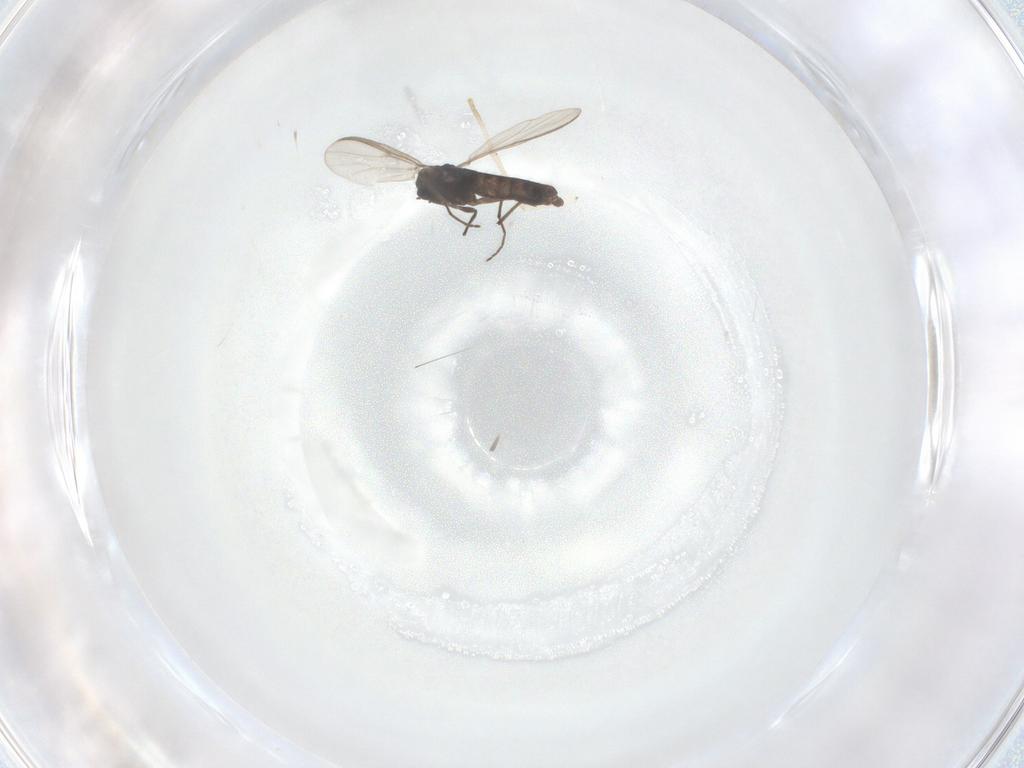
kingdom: Animalia
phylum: Arthropoda
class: Insecta
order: Diptera
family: Psychodidae
